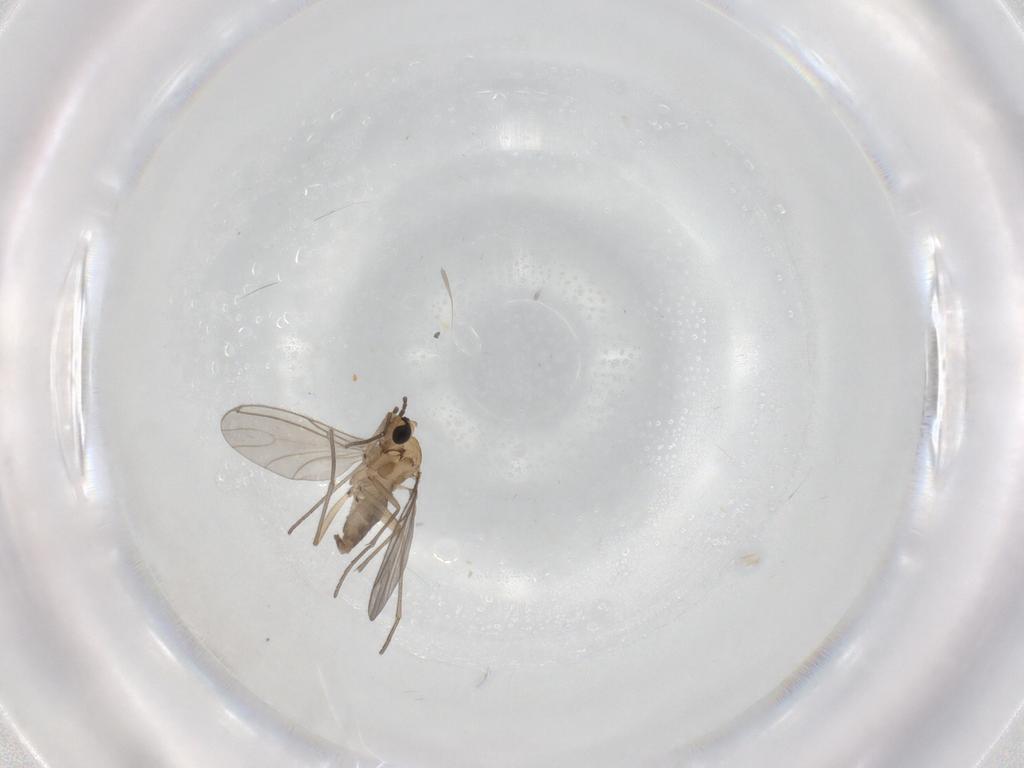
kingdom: Animalia
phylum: Arthropoda
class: Insecta
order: Diptera
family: Sciaridae
